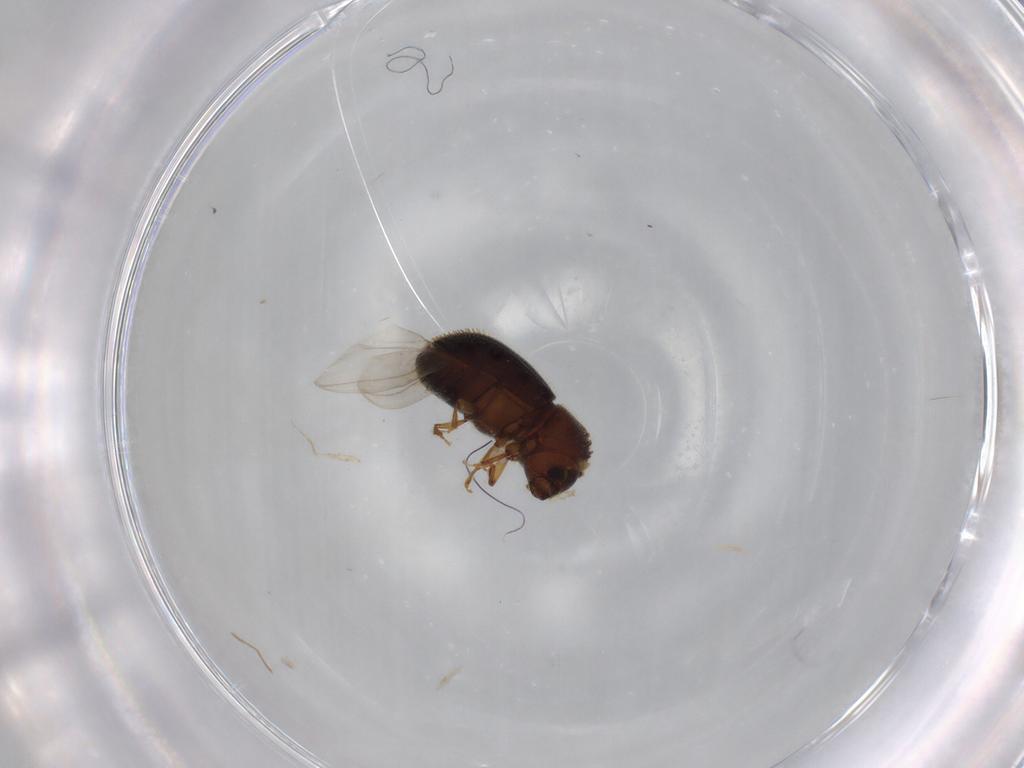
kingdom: Animalia
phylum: Arthropoda
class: Insecta
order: Coleoptera
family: Curculionidae
